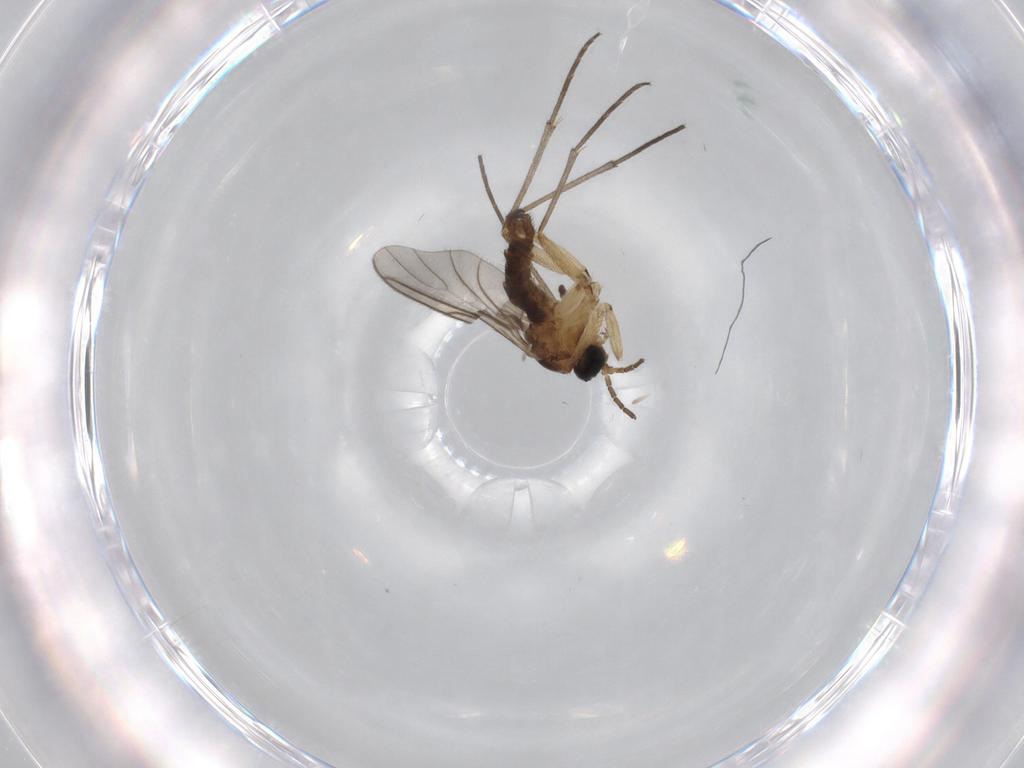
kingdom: Animalia
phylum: Arthropoda
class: Insecta
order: Diptera
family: Sciaridae
